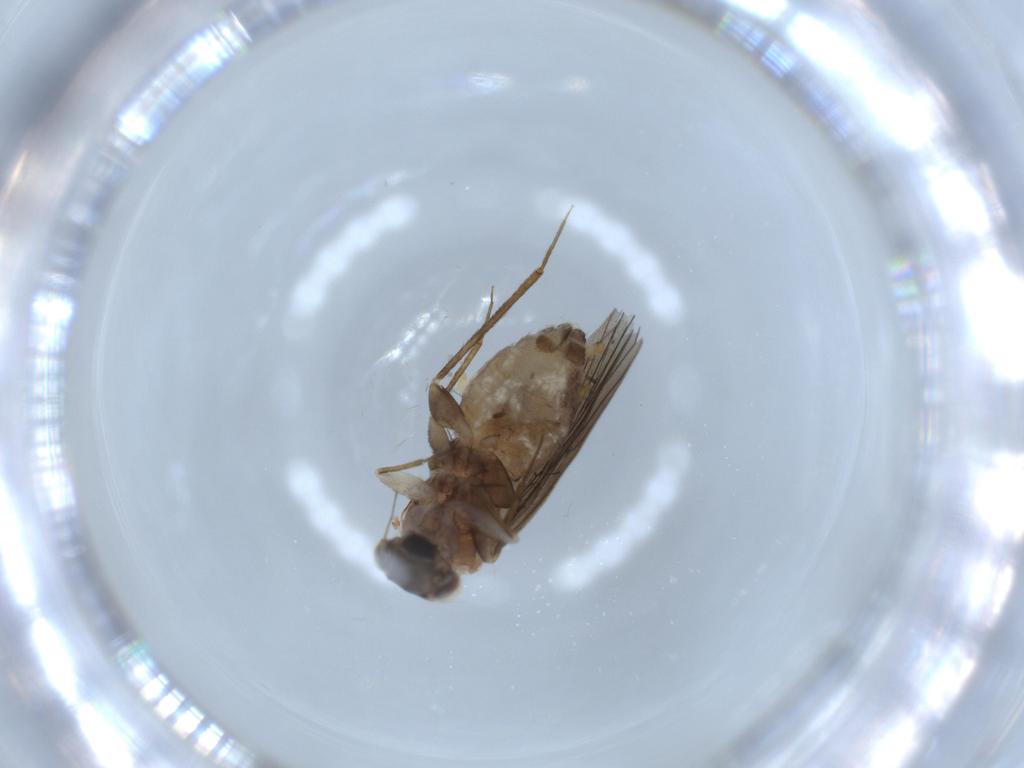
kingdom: Animalia
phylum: Arthropoda
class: Insecta
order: Psocodea
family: Lepidopsocidae
